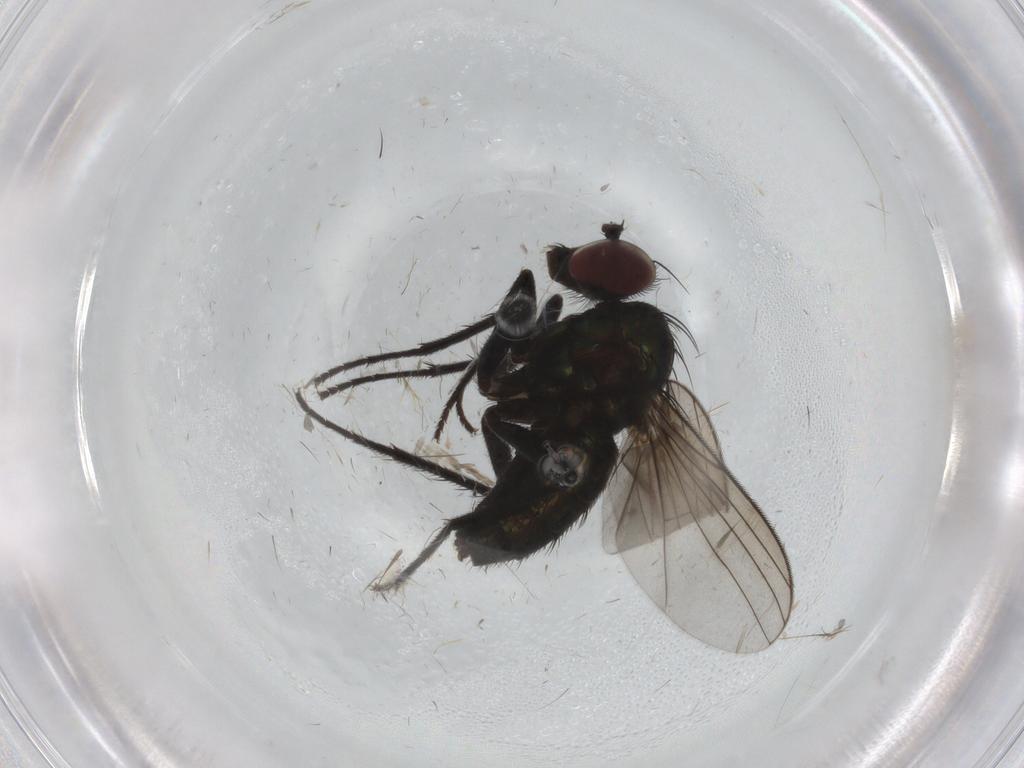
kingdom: Animalia
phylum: Arthropoda
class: Insecta
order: Diptera
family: Dolichopodidae
